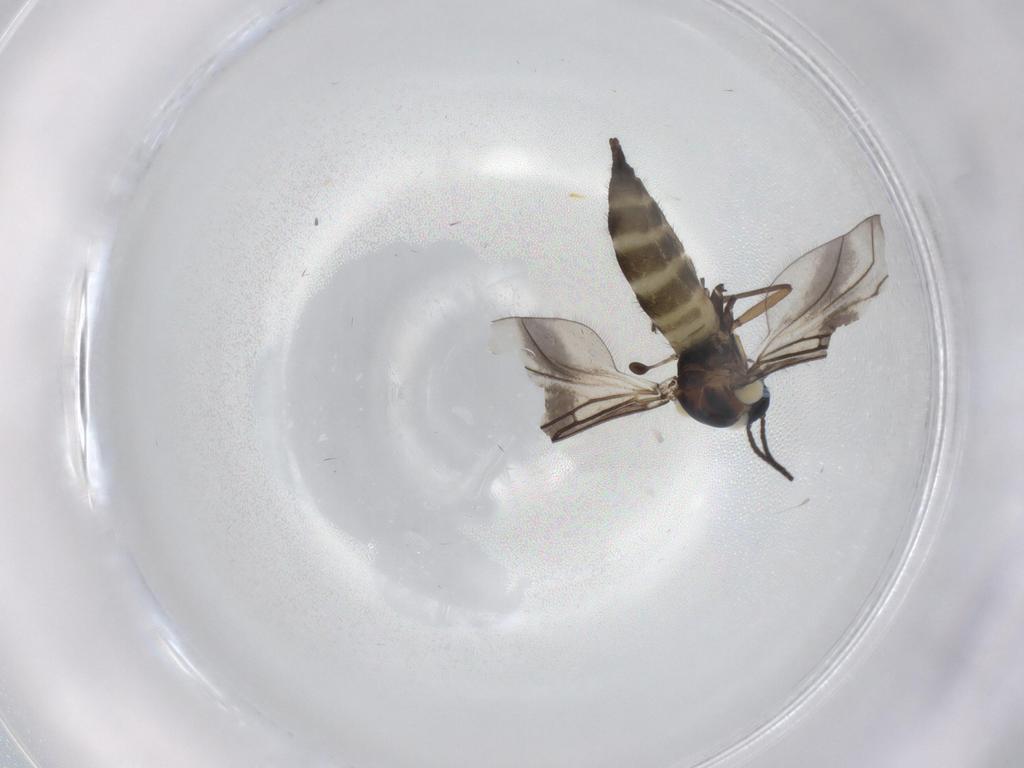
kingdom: Animalia
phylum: Arthropoda
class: Insecta
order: Diptera
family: Sciaridae
